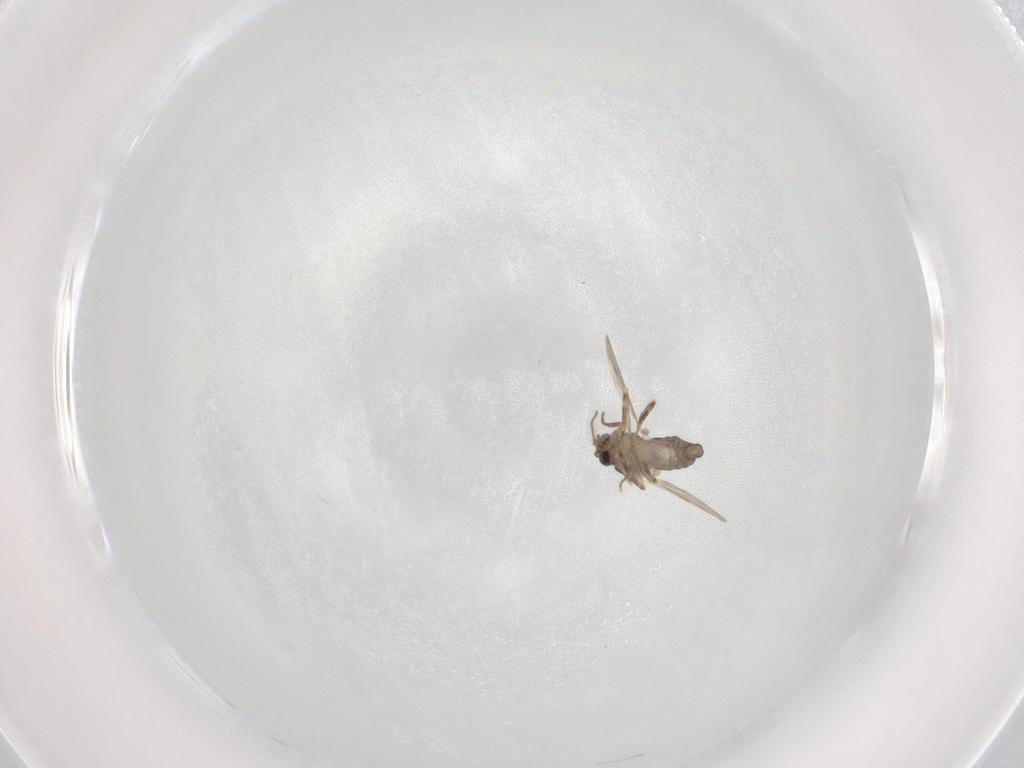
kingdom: Animalia
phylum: Arthropoda
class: Insecta
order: Diptera
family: Ceratopogonidae
